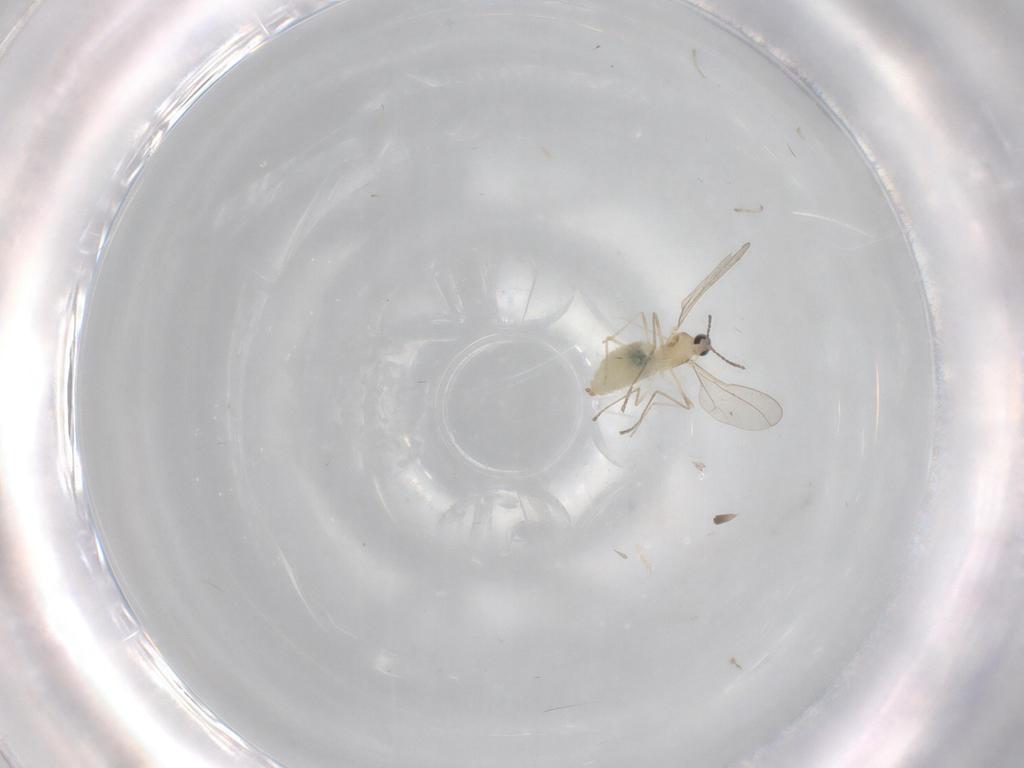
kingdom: Animalia
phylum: Arthropoda
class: Insecta
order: Diptera
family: Cecidomyiidae
